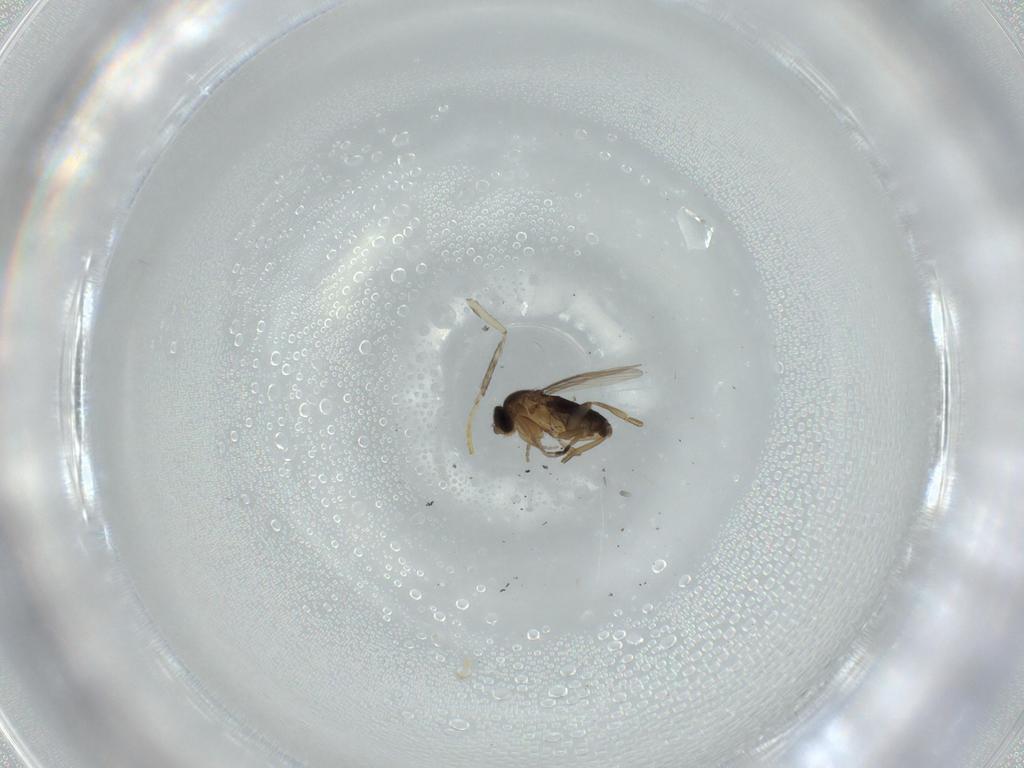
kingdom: Animalia
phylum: Arthropoda
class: Insecta
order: Diptera
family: Phoridae
